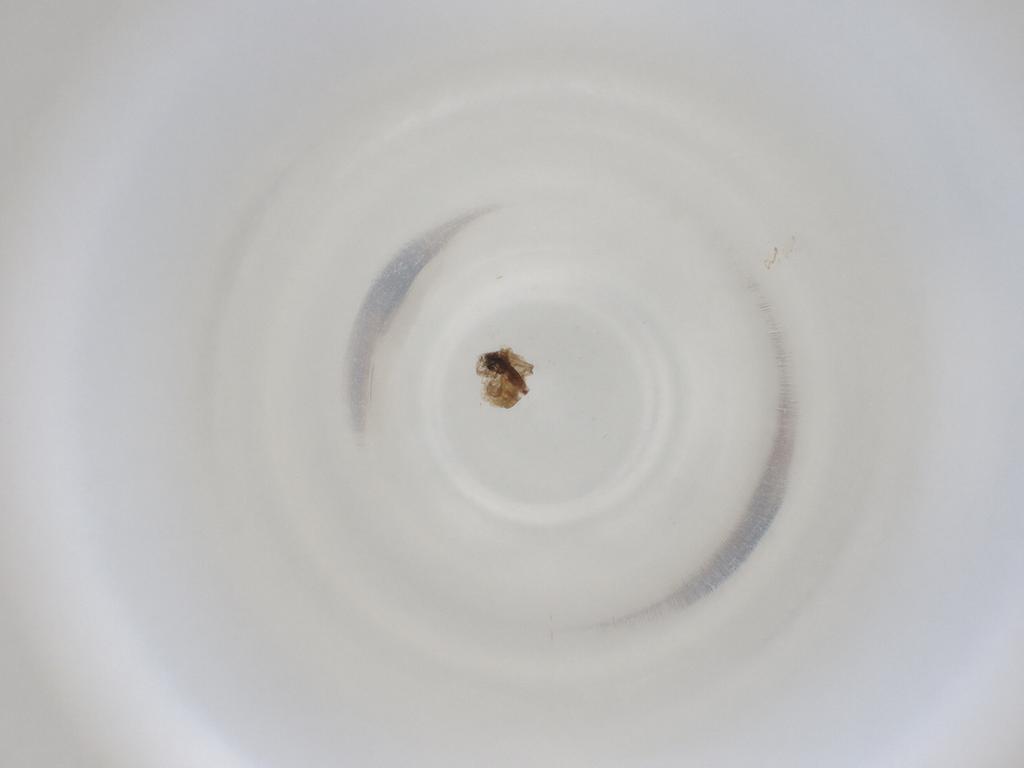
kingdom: Animalia
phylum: Arthropoda
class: Insecta
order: Diptera
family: Cecidomyiidae
